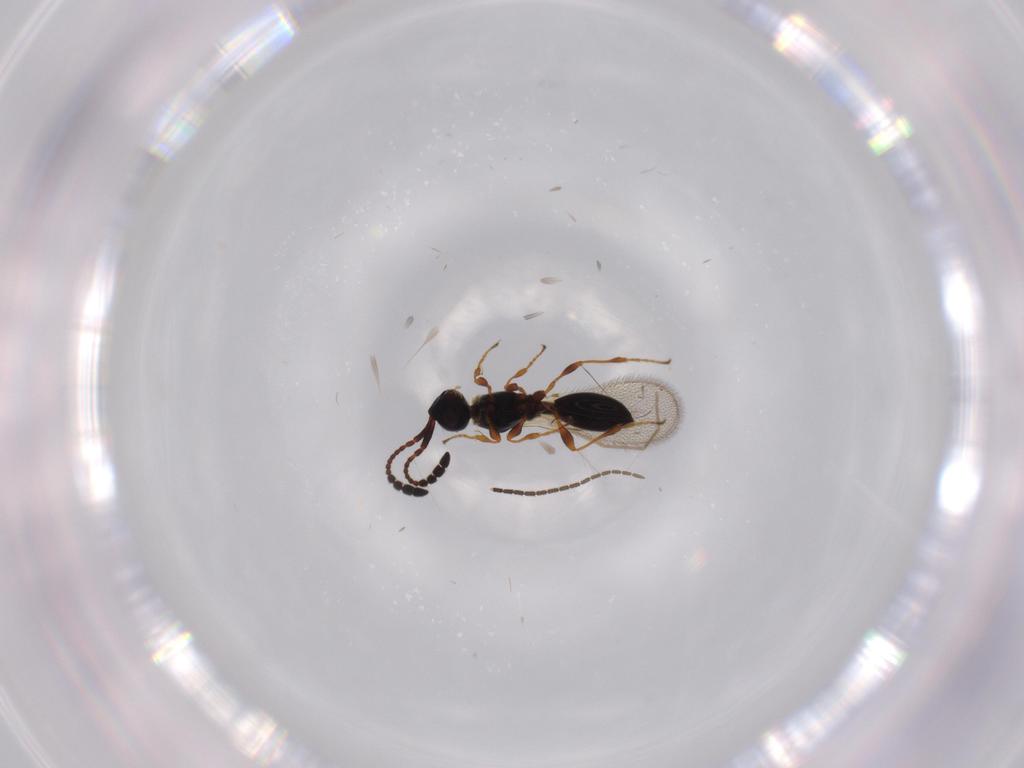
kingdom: Animalia
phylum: Arthropoda
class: Insecta
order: Hymenoptera
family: Diapriidae
